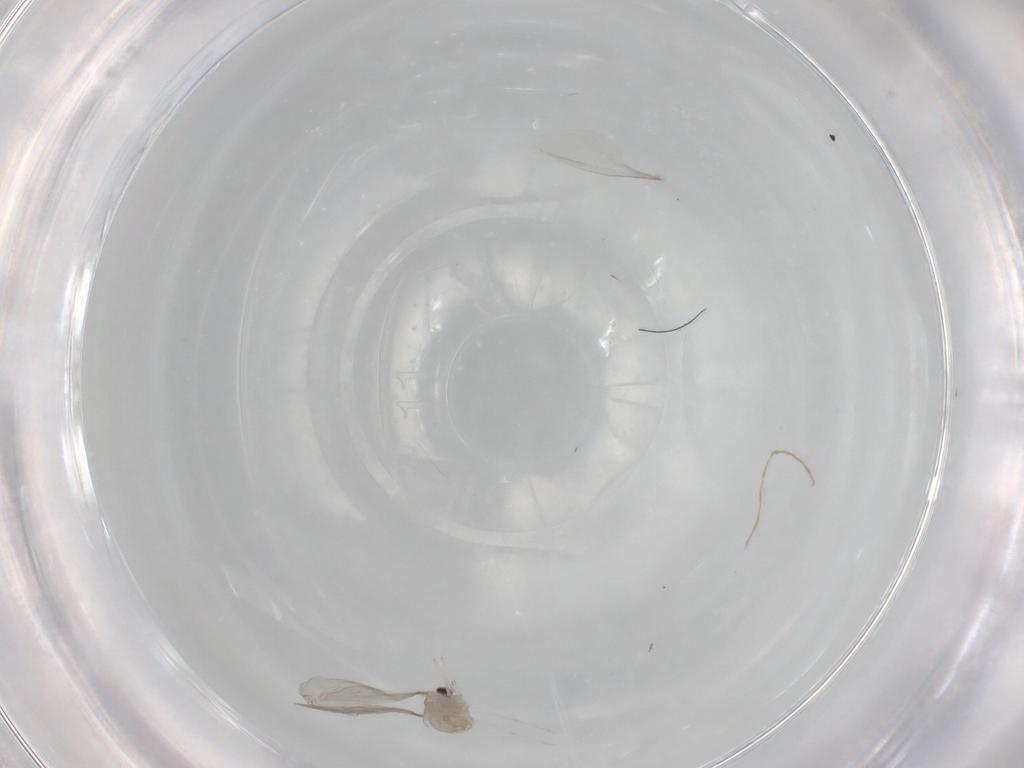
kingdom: Animalia
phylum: Arthropoda
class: Insecta
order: Diptera
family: Cecidomyiidae
